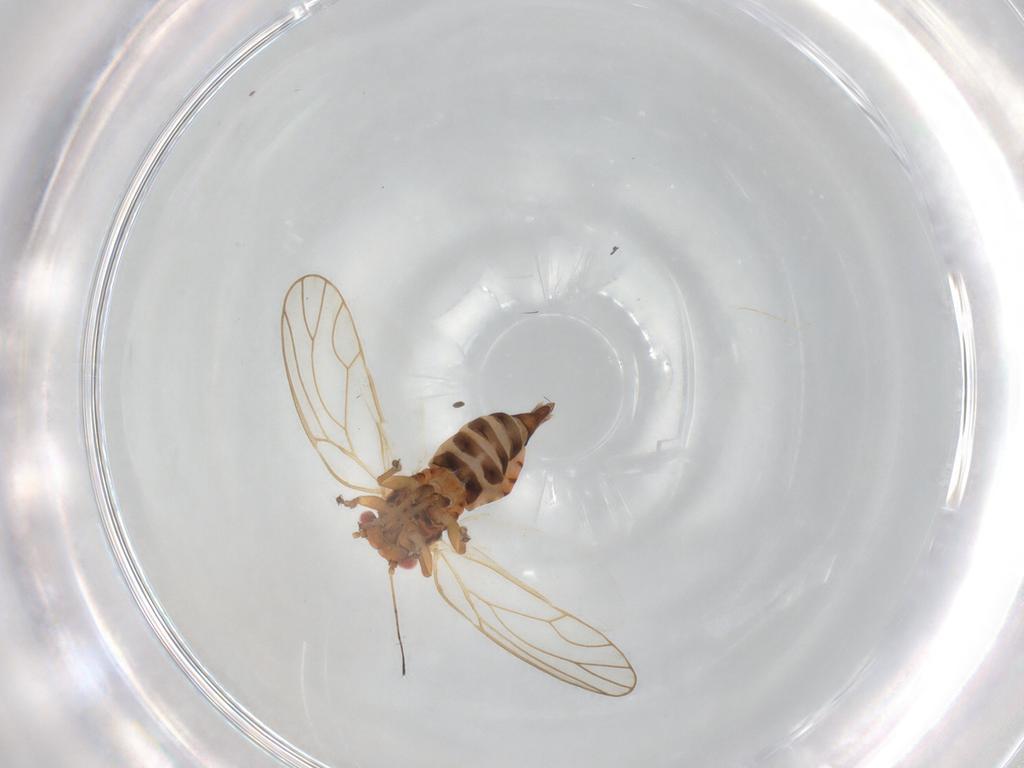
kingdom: Animalia
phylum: Arthropoda
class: Insecta
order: Hemiptera
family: Psyllidae
